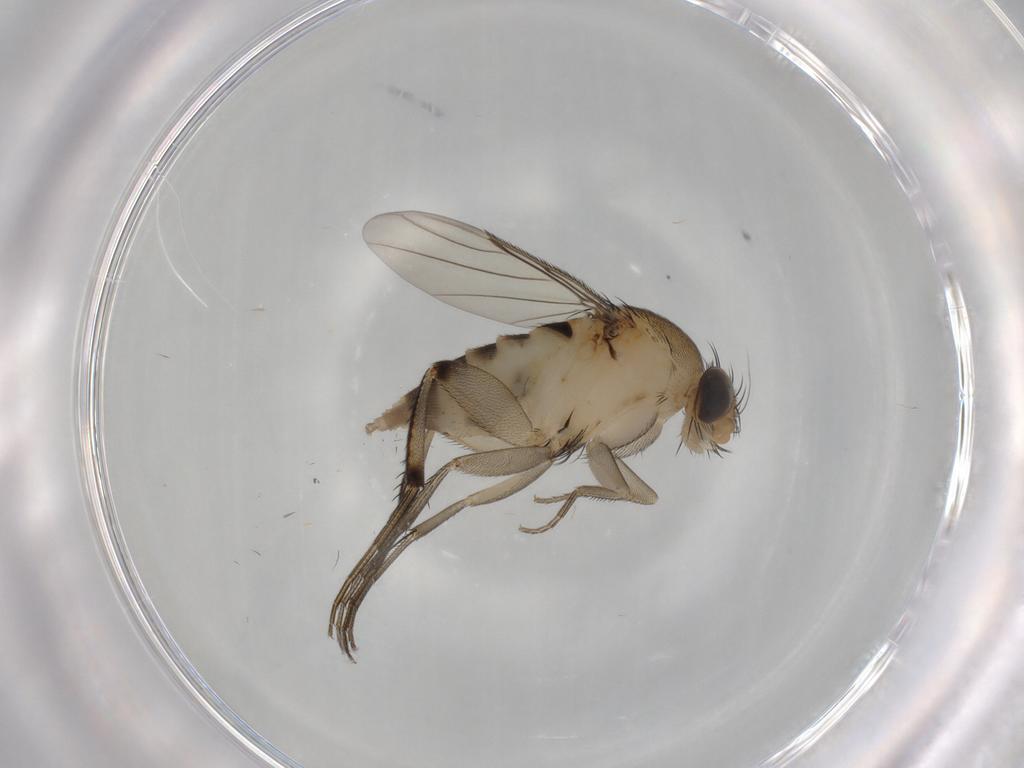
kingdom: Animalia
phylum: Arthropoda
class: Insecta
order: Diptera
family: Phoridae
